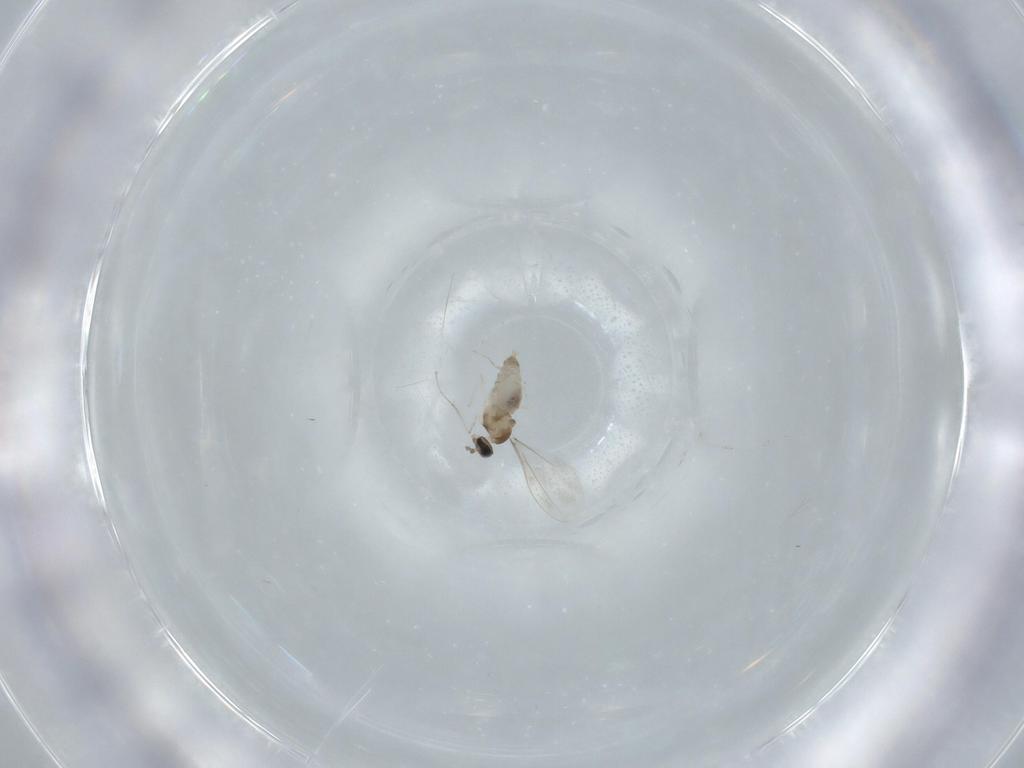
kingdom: Animalia
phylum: Arthropoda
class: Insecta
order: Diptera
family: Cecidomyiidae
